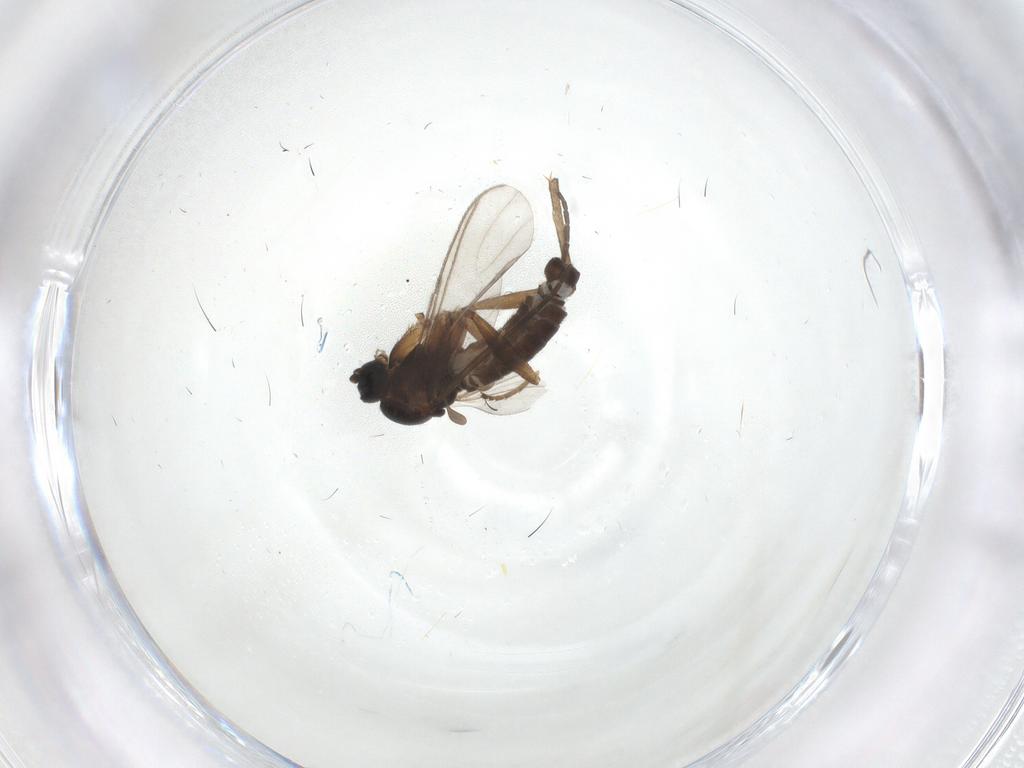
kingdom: Animalia
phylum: Arthropoda
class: Insecta
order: Diptera
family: Sciaridae
